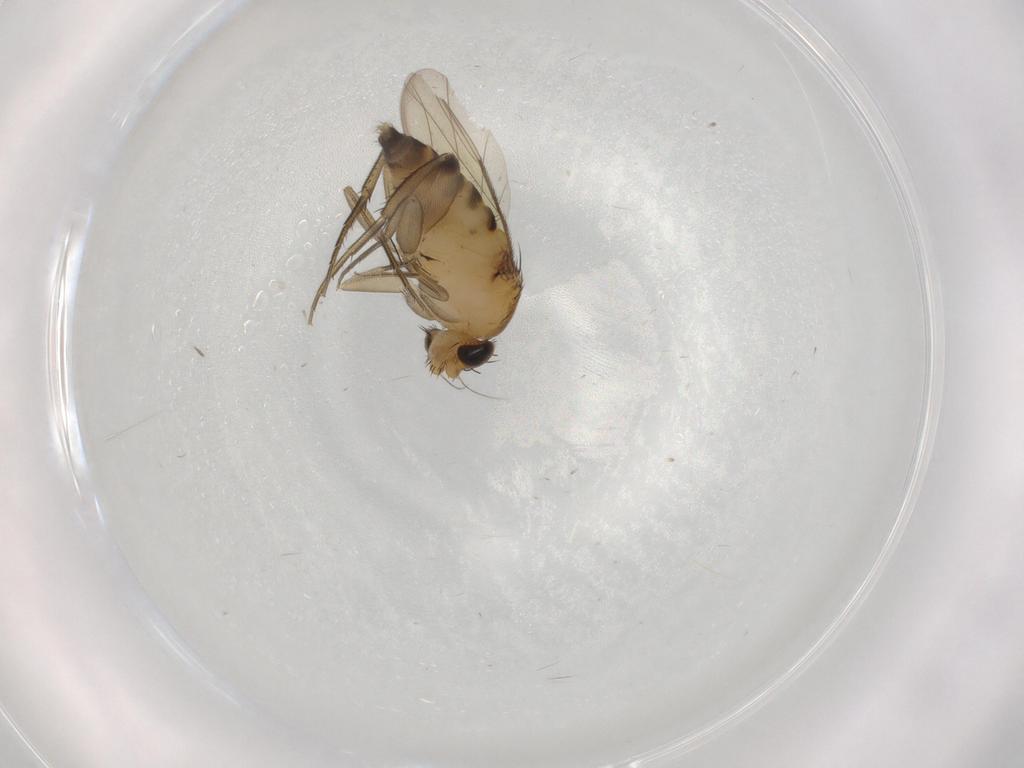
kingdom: Animalia
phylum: Arthropoda
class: Insecta
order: Diptera
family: Phoridae
